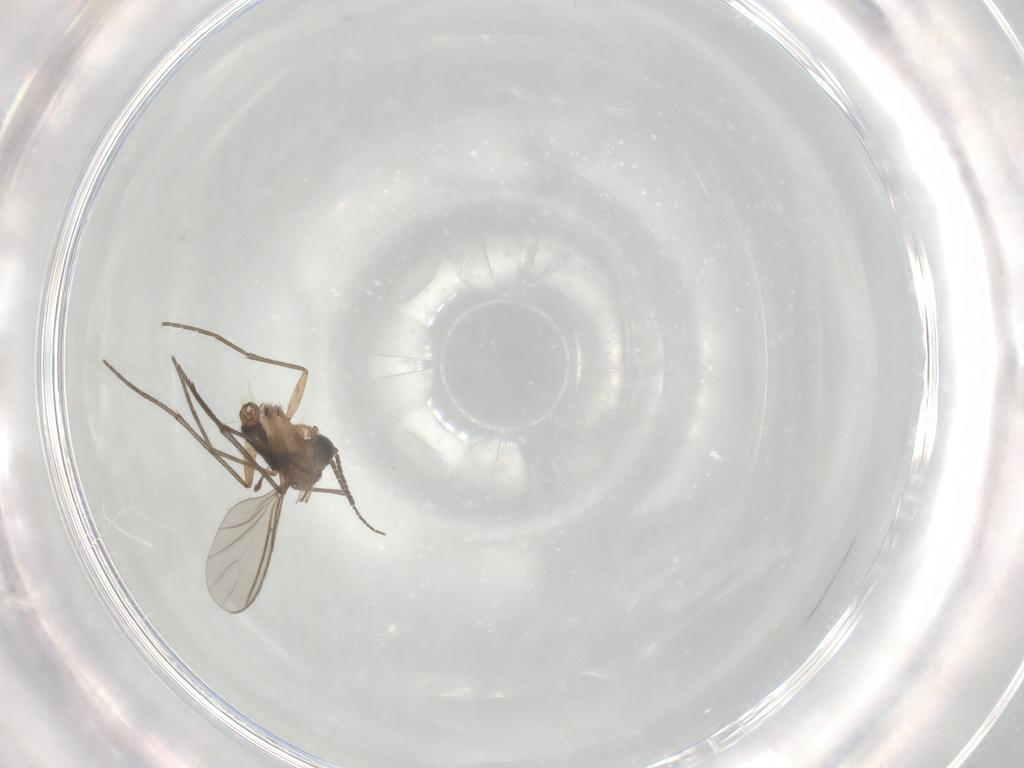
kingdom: Animalia
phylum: Arthropoda
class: Insecta
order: Diptera
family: Sciaridae
